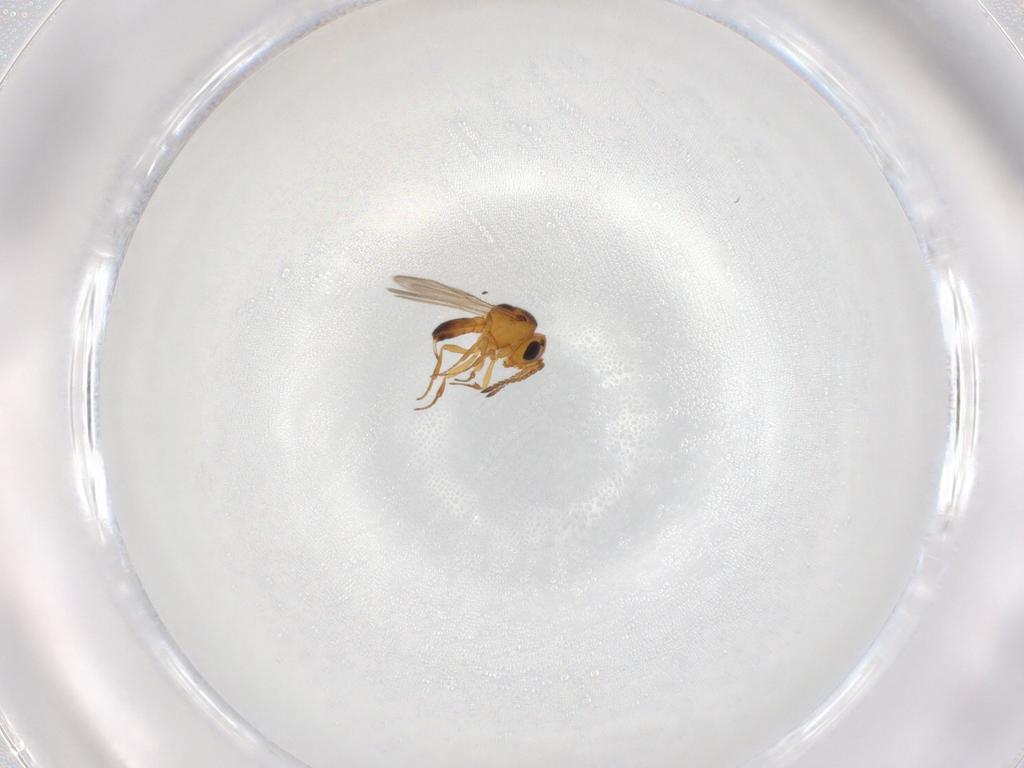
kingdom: Animalia
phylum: Arthropoda
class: Insecta
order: Hymenoptera
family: Scelionidae
